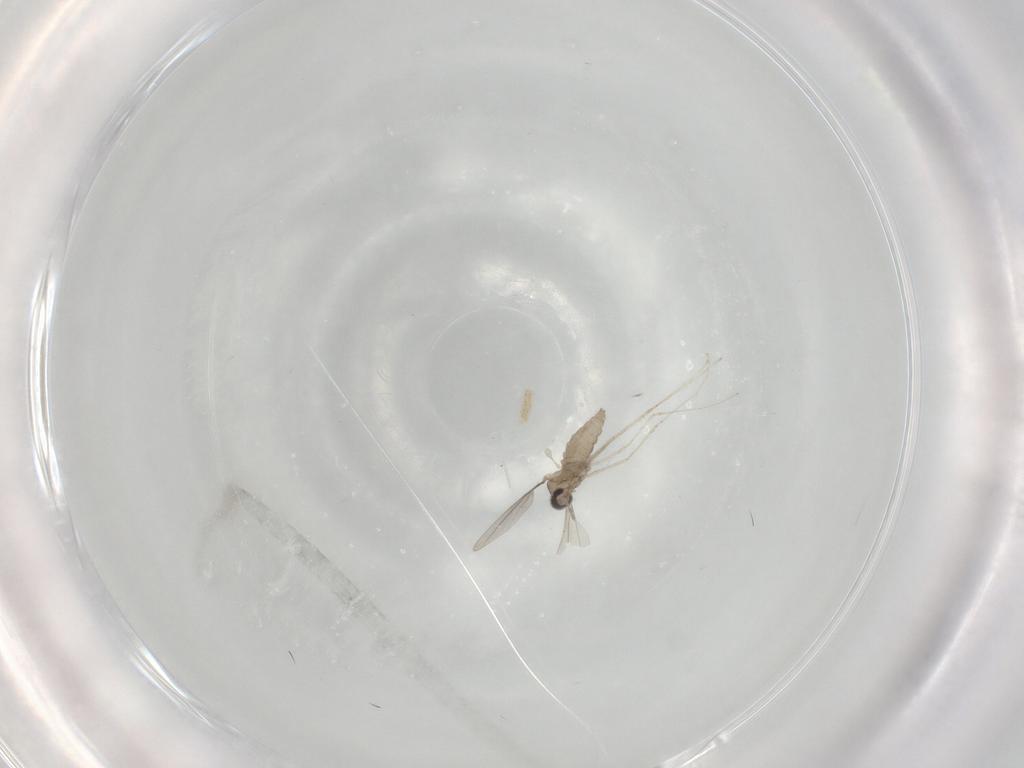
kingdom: Animalia
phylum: Arthropoda
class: Insecta
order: Diptera
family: Cecidomyiidae
